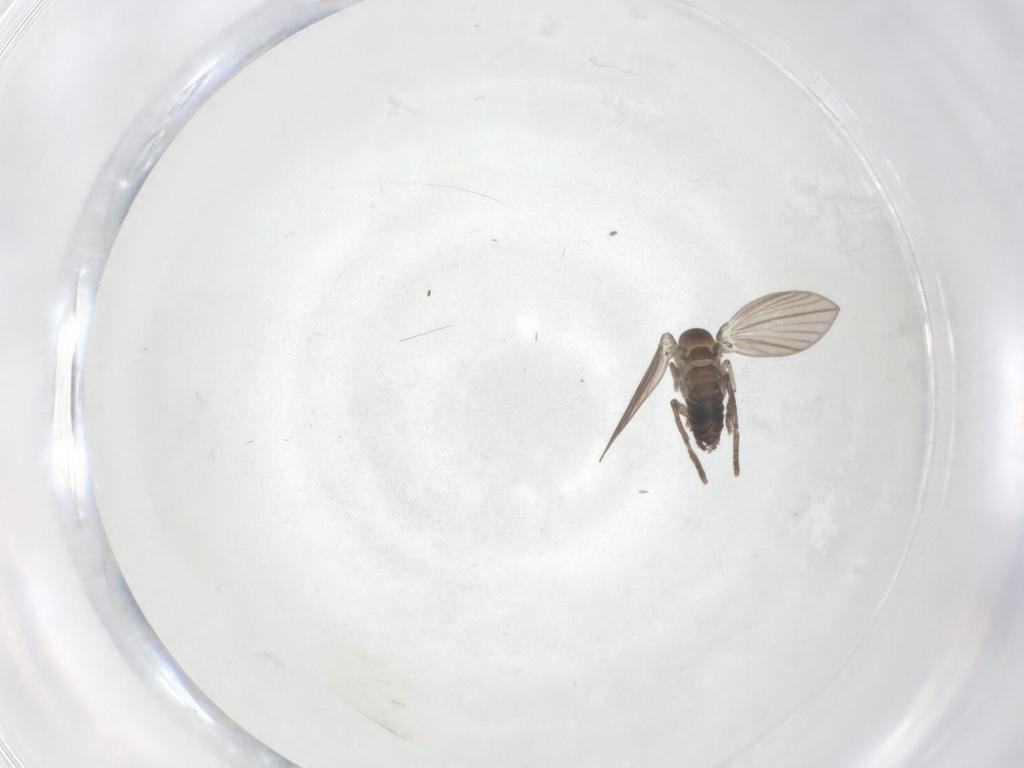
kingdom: Animalia
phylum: Arthropoda
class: Insecta
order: Diptera
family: Psychodidae
